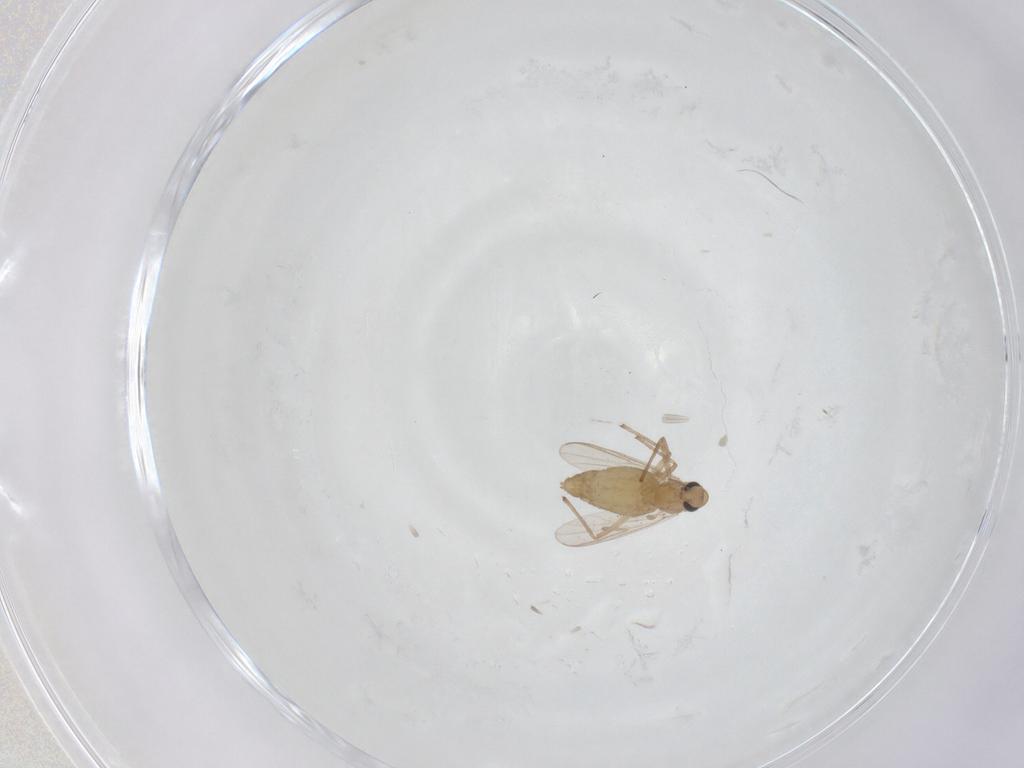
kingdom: Animalia
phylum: Arthropoda
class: Insecta
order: Diptera
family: Chironomidae
